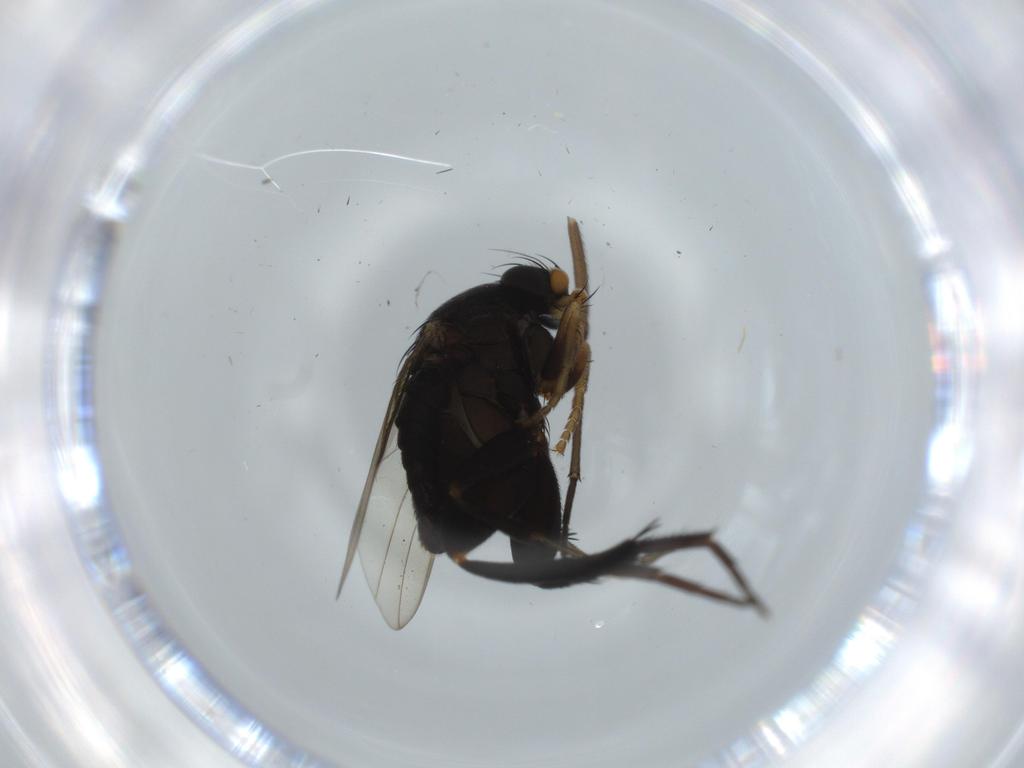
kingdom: Animalia
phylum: Arthropoda
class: Insecta
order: Diptera
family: Phoridae
